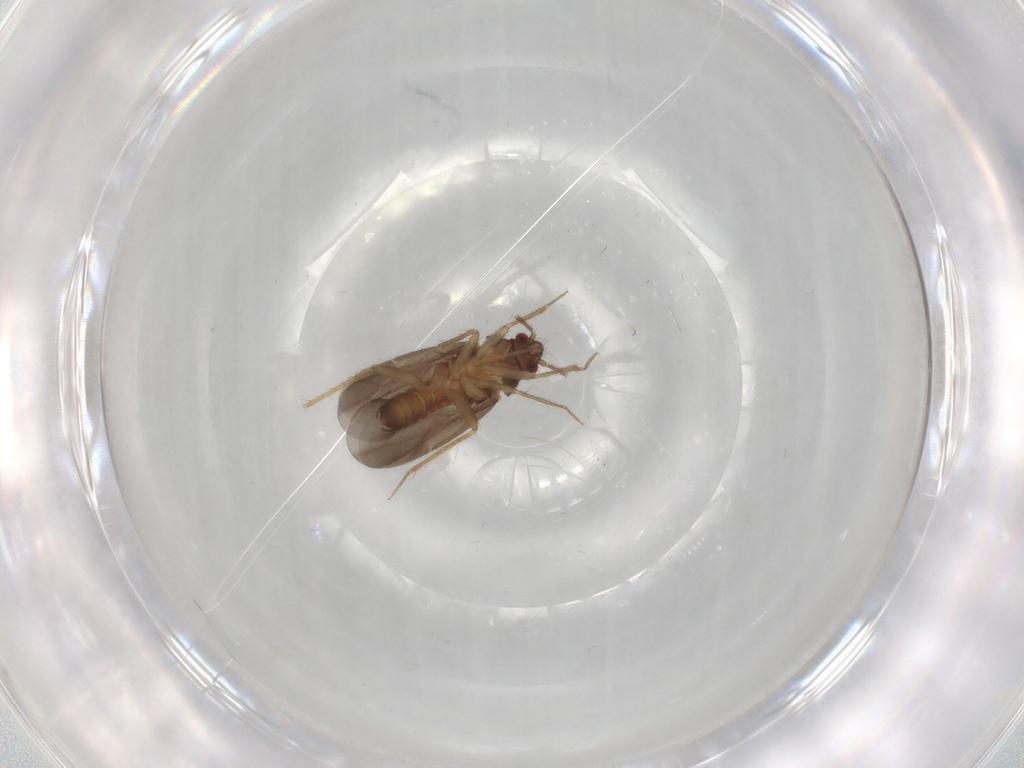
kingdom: Animalia
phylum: Arthropoda
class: Insecta
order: Hemiptera
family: Ceratocombidae
